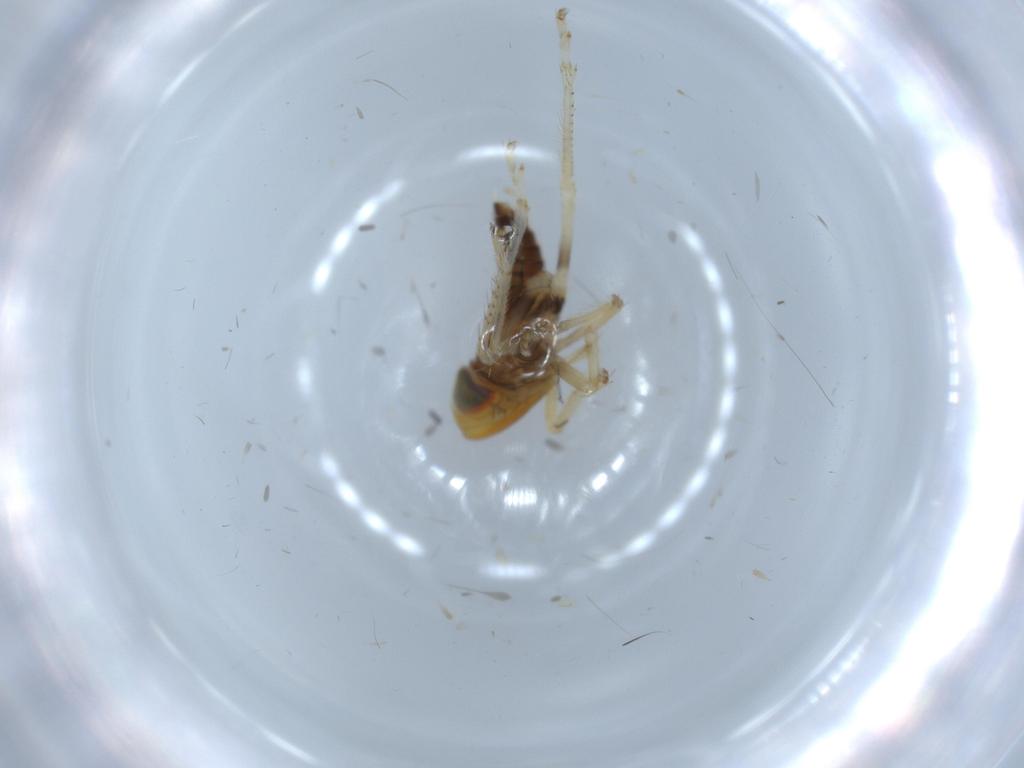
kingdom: Animalia
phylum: Arthropoda
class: Insecta
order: Hemiptera
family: Cicadellidae
